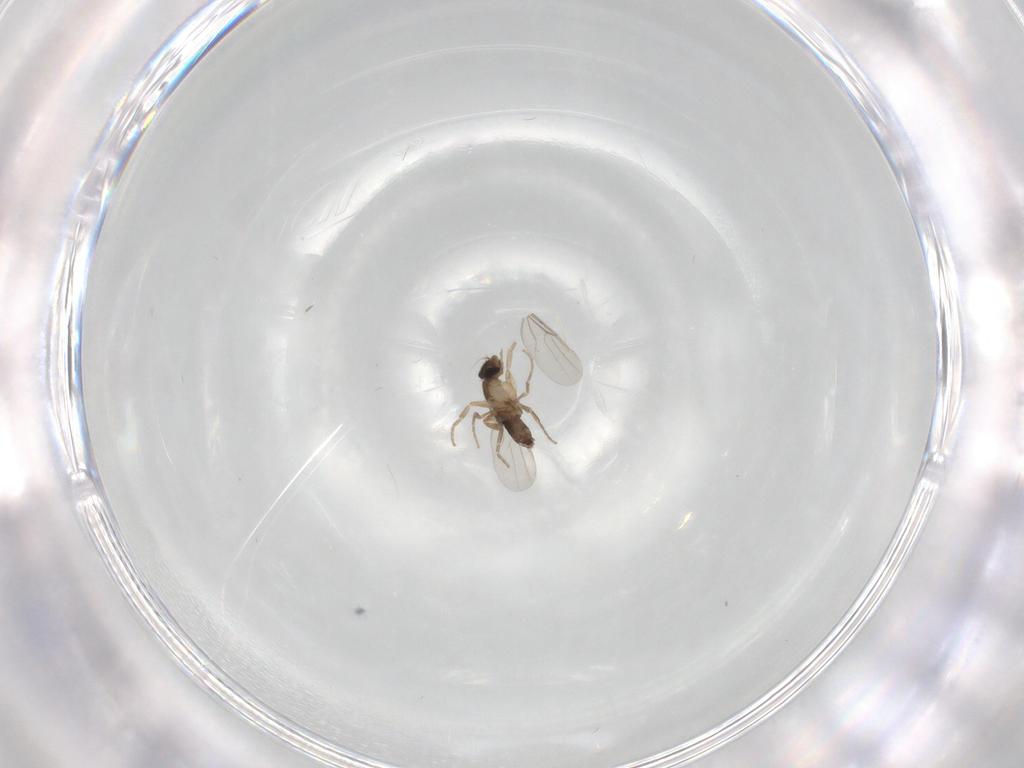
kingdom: Animalia
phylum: Arthropoda
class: Insecta
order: Diptera
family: Phoridae
